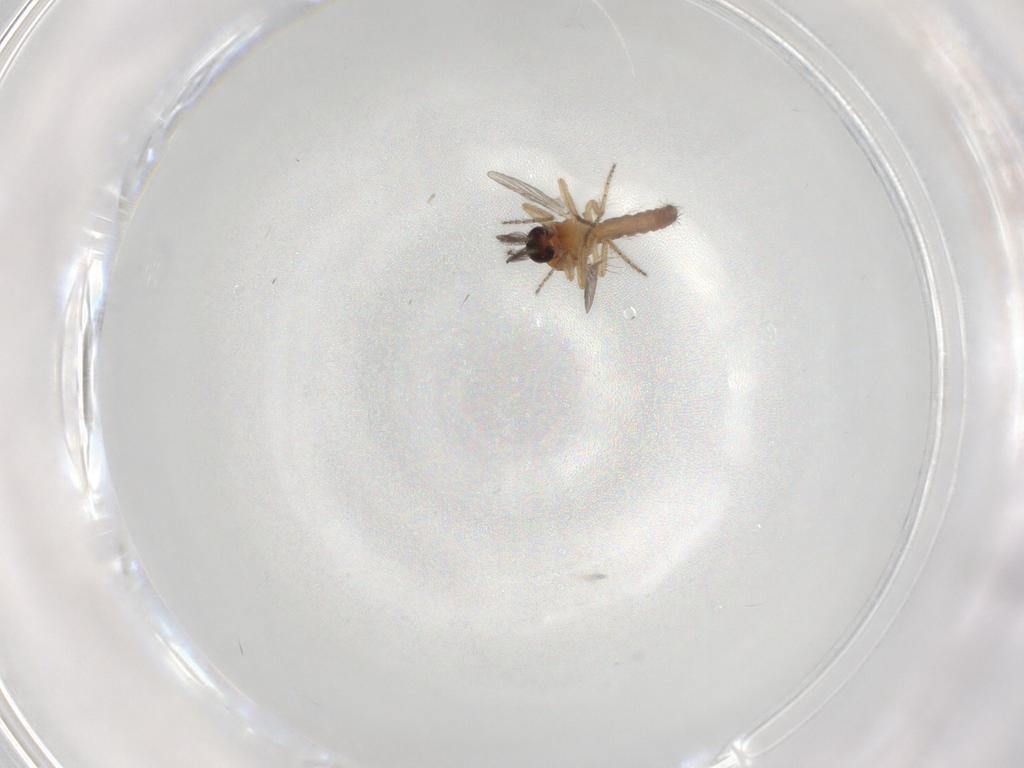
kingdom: Animalia
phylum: Arthropoda
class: Insecta
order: Diptera
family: Ceratopogonidae
